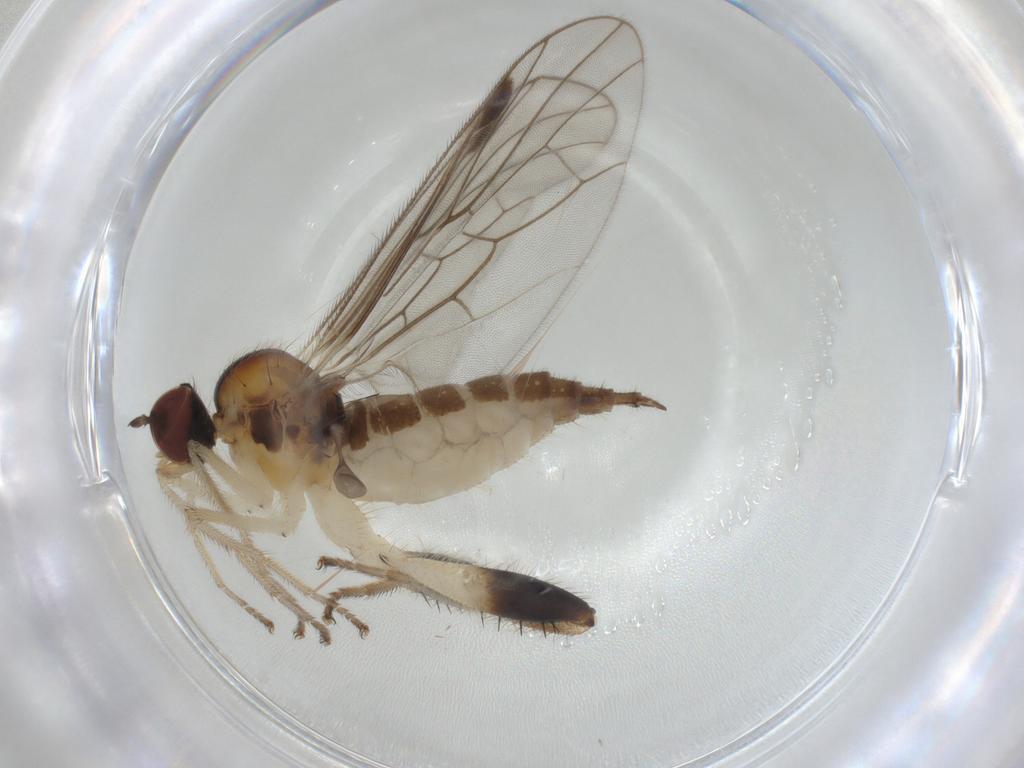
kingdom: Animalia
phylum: Arthropoda
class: Insecta
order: Diptera
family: Hybotidae
